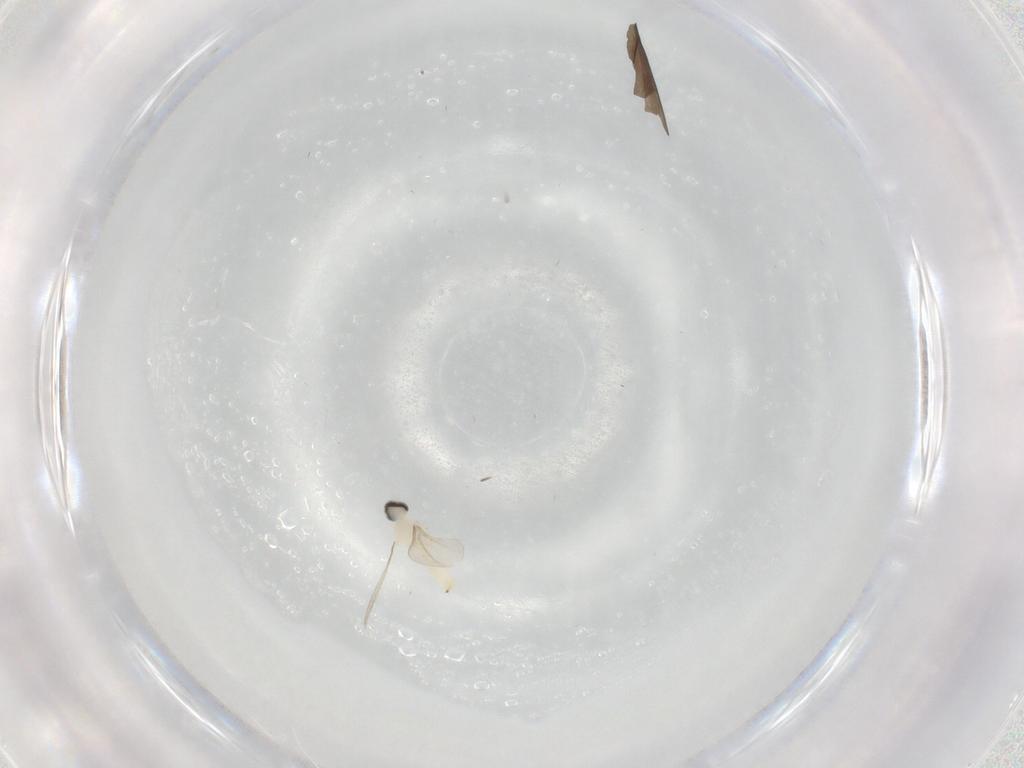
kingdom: Animalia
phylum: Arthropoda
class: Insecta
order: Diptera
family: Cecidomyiidae
